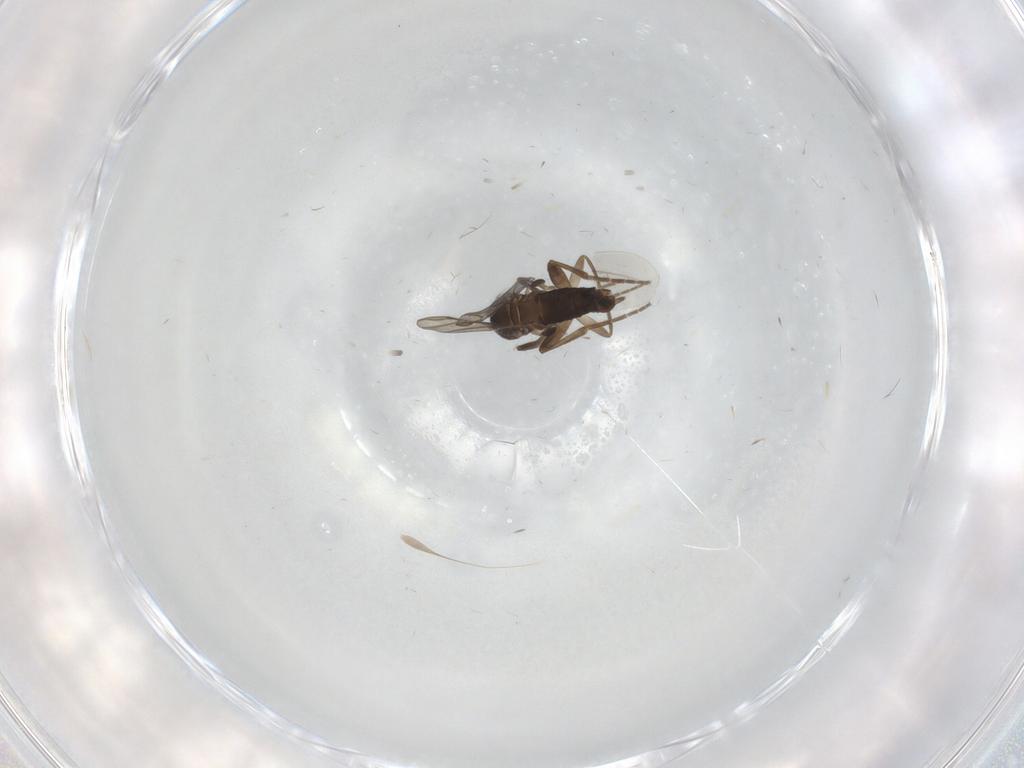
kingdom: Animalia
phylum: Arthropoda
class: Insecta
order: Diptera
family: Phoridae
